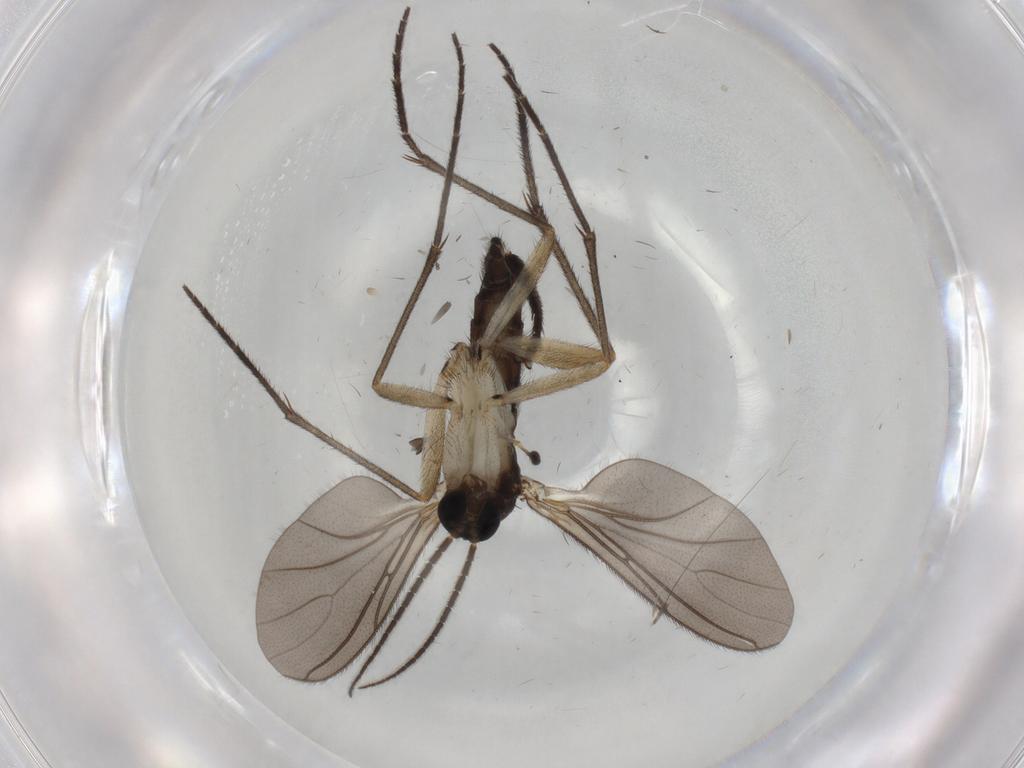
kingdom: Animalia
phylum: Arthropoda
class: Insecta
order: Diptera
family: Sciaridae
